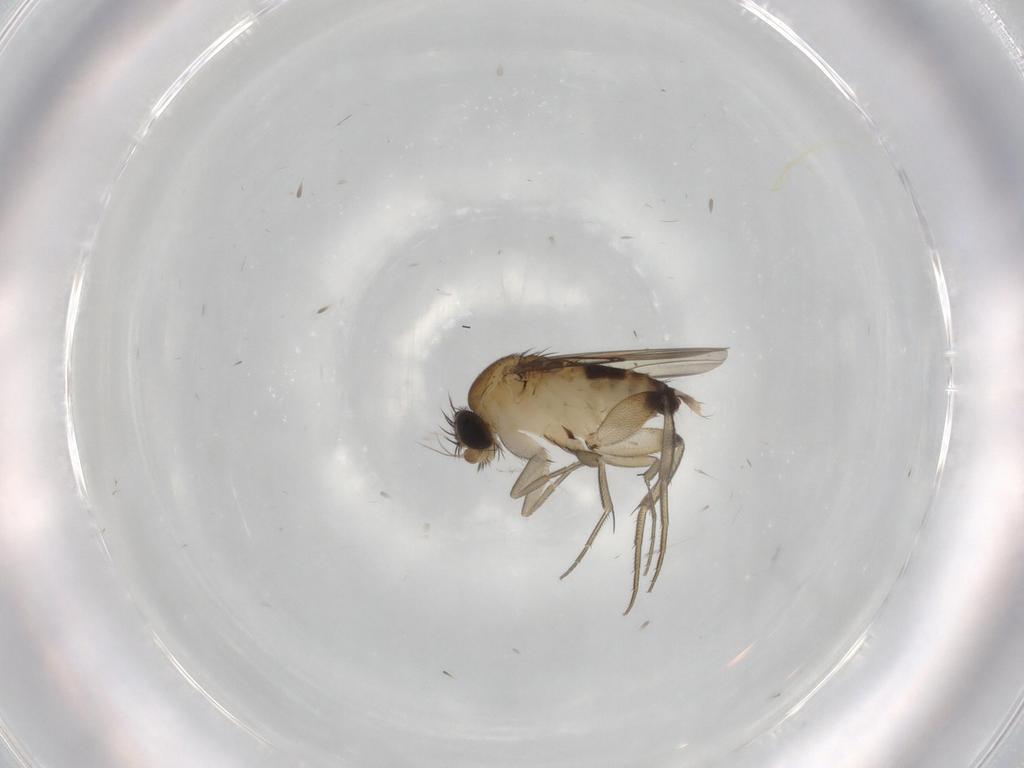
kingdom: Animalia
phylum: Arthropoda
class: Insecta
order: Diptera
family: Phoridae
